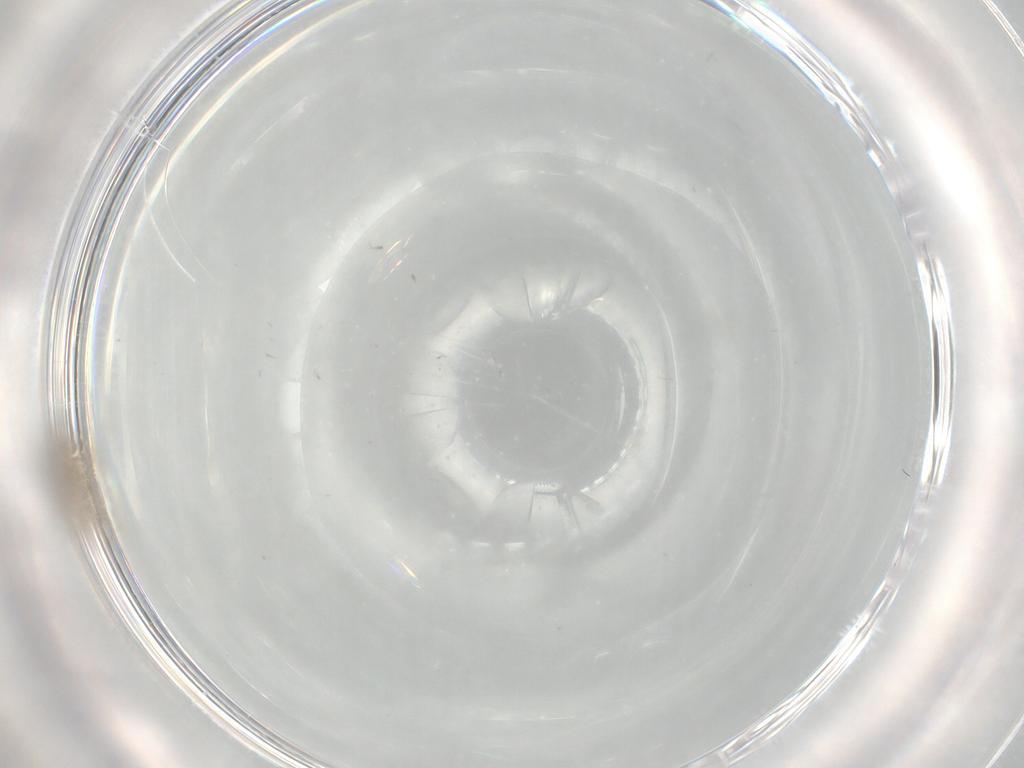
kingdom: Animalia
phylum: Arthropoda
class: Insecta
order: Diptera
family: Cecidomyiidae
